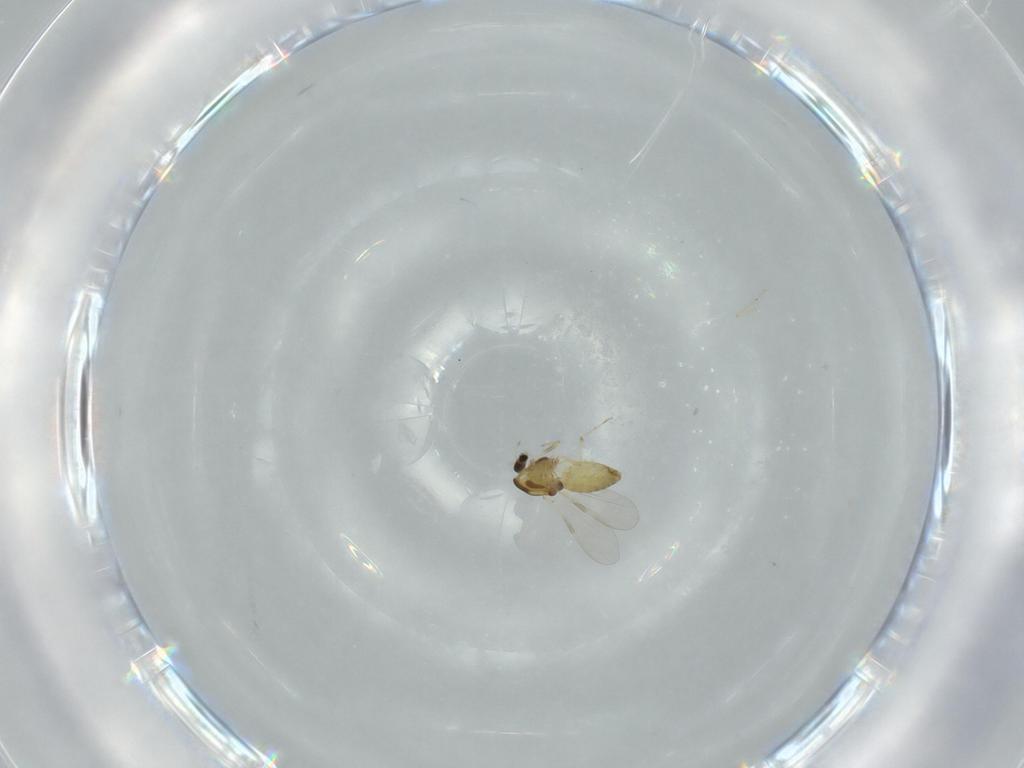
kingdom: Animalia
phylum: Arthropoda
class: Insecta
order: Diptera
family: Chironomidae
